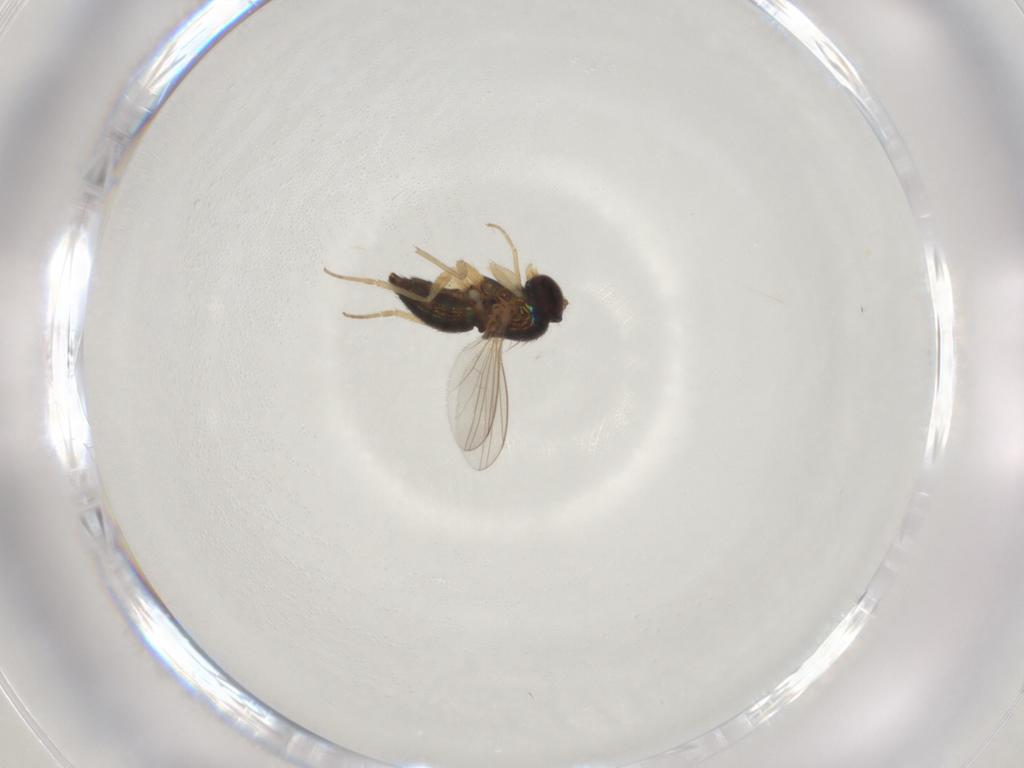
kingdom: Animalia
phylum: Arthropoda
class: Insecta
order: Diptera
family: Dolichopodidae
